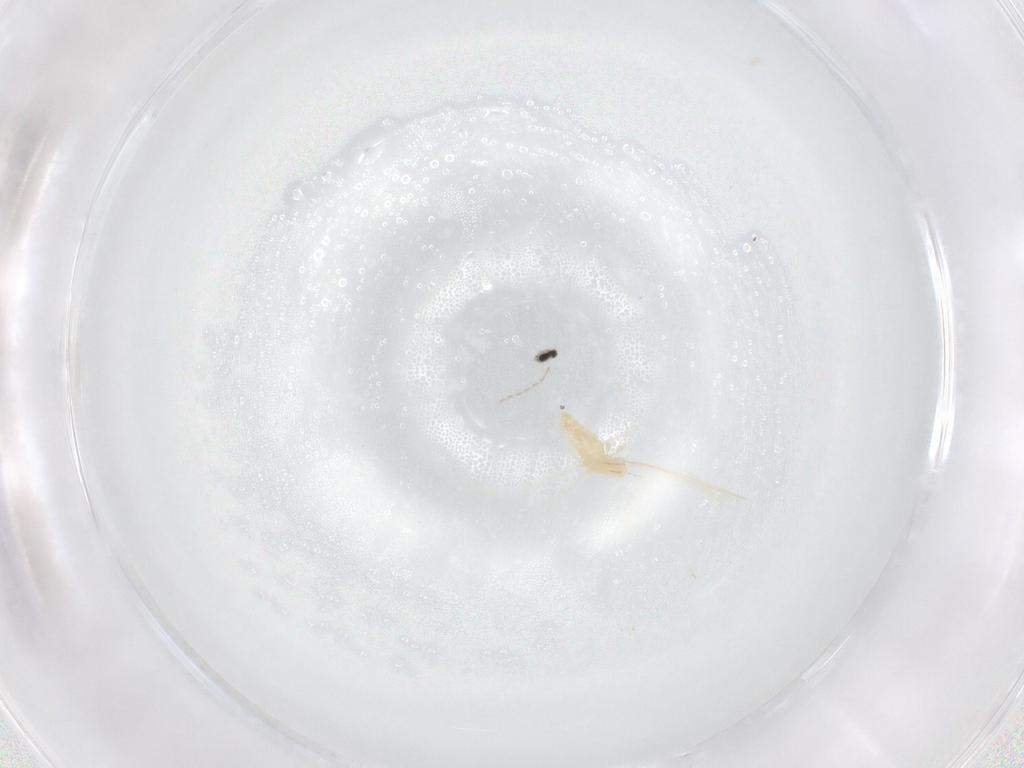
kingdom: Animalia
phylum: Arthropoda
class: Insecta
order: Diptera
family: Cecidomyiidae
